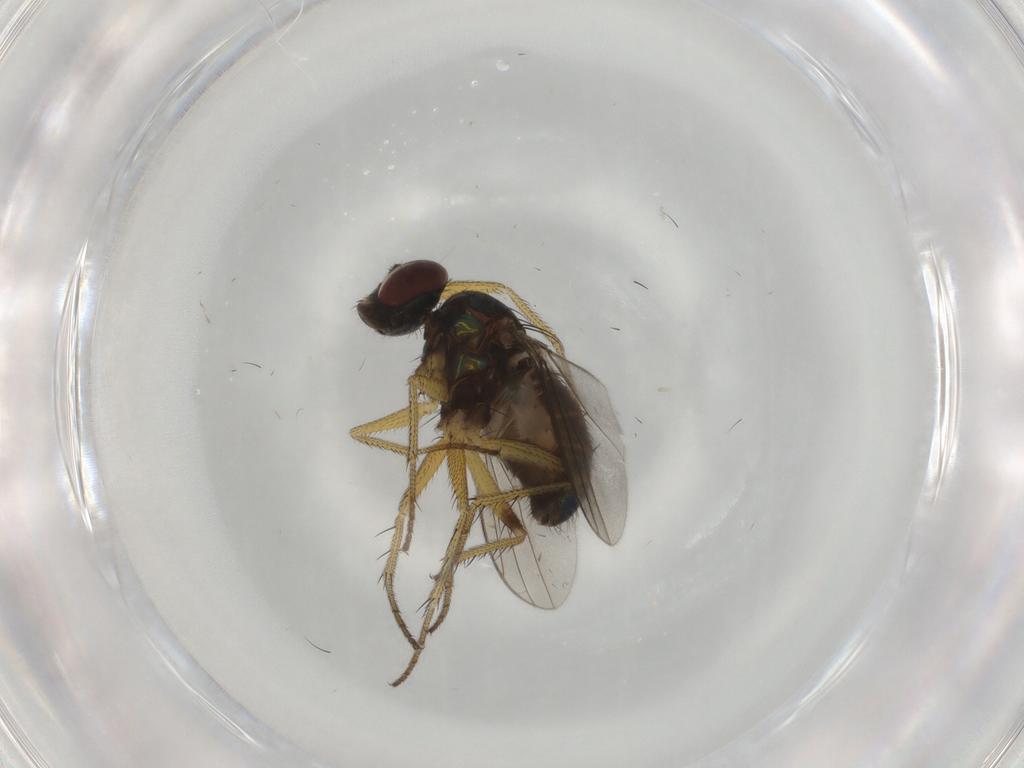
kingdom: Animalia
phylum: Arthropoda
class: Insecta
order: Diptera
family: Dolichopodidae
